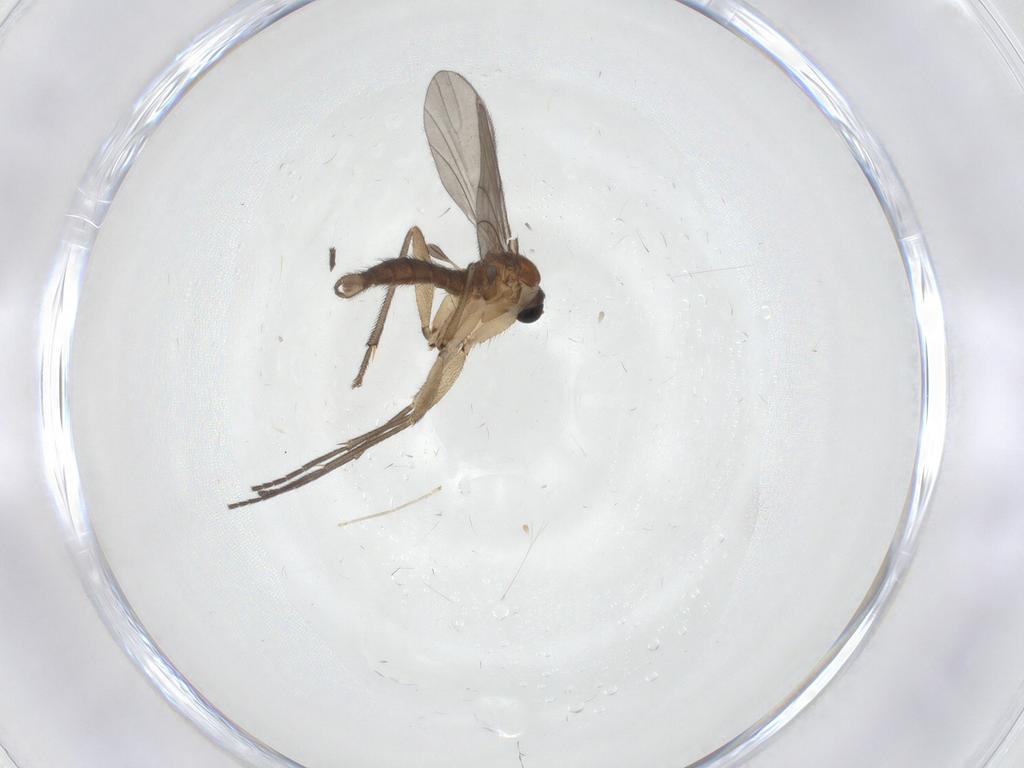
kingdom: Animalia
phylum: Arthropoda
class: Insecta
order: Diptera
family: Sciaridae
